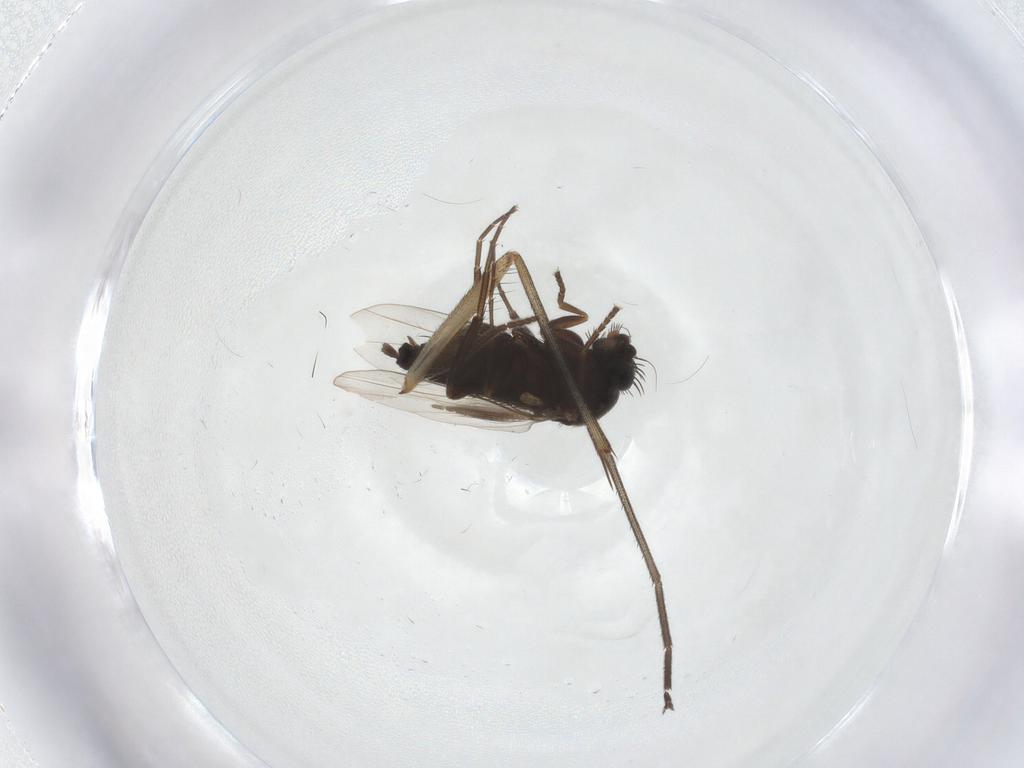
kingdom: Animalia
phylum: Arthropoda
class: Insecta
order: Diptera
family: Phoridae
